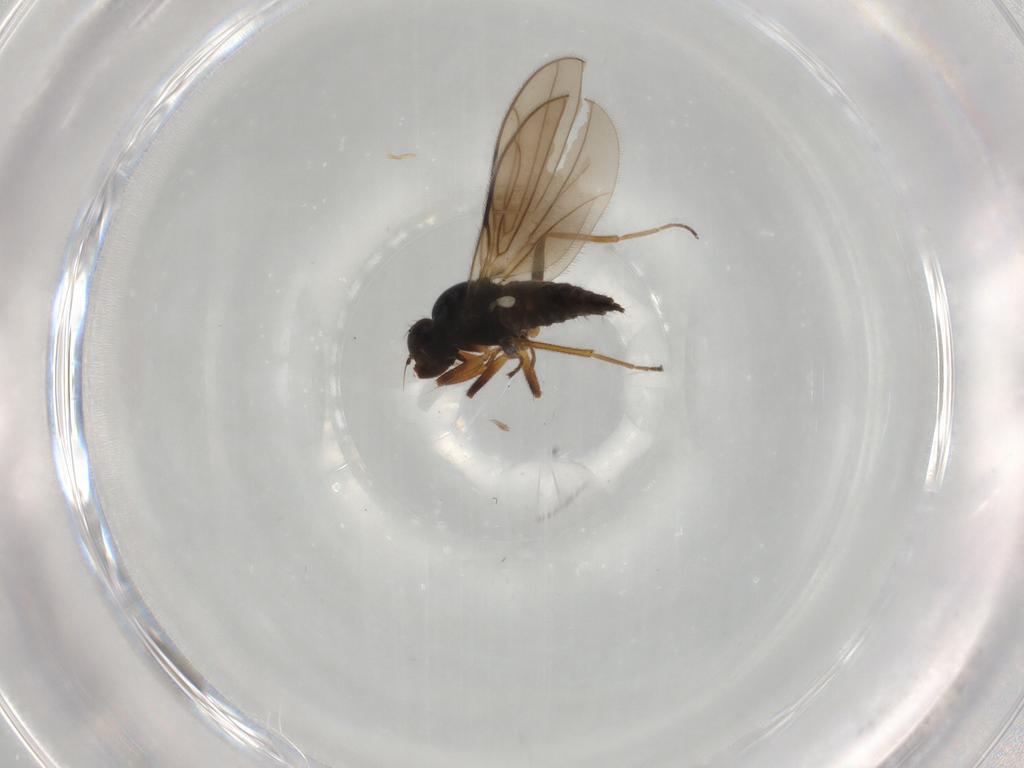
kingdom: Animalia
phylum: Arthropoda
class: Insecta
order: Diptera
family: Hybotidae
